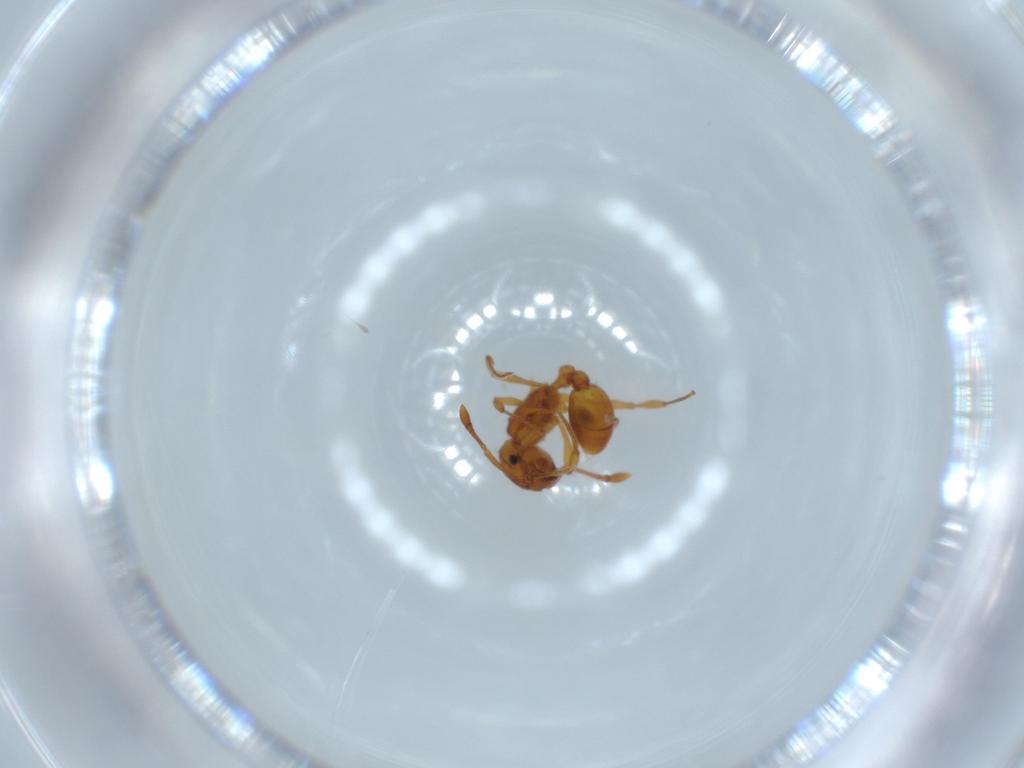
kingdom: Animalia
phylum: Arthropoda
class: Insecta
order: Hymenoptera
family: Formicidae
